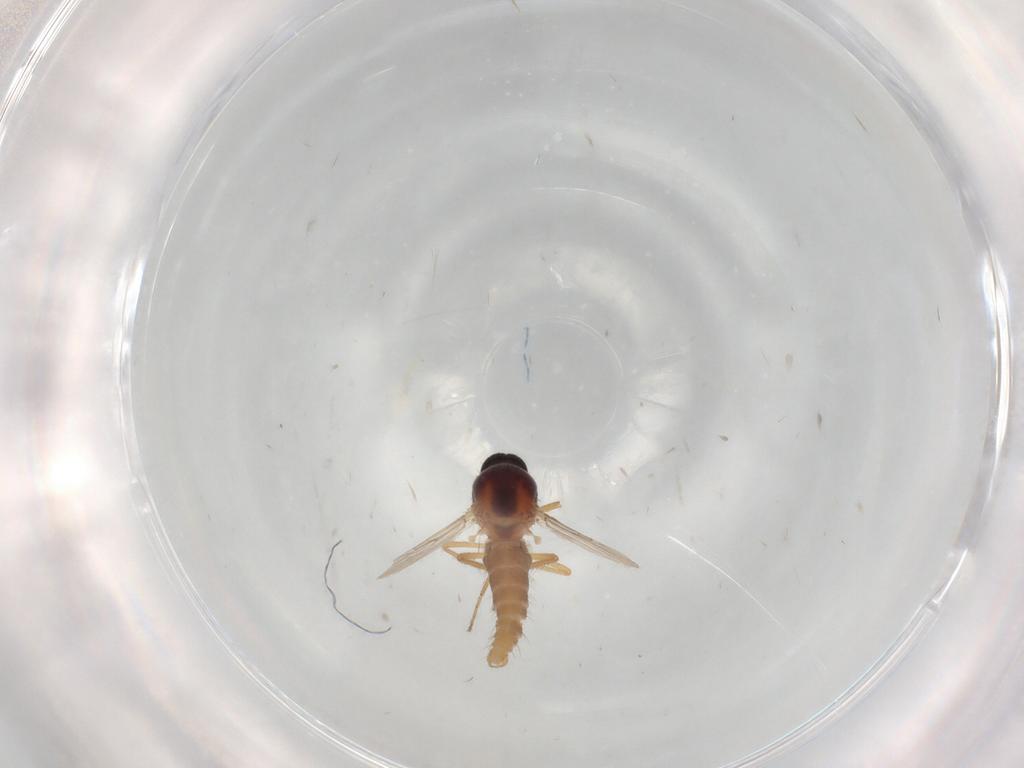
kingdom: Animalia
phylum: Arthropoda
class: Insecta
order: Diptera
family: Ceratopogonidae
